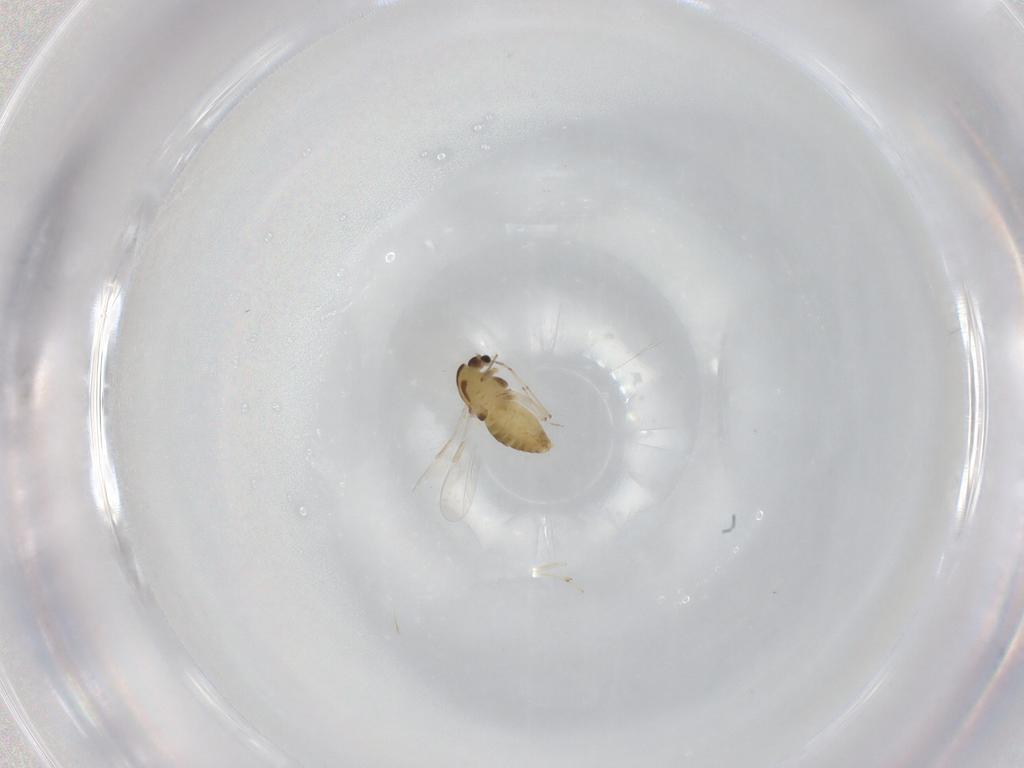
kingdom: Animalia
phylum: Arthropoda
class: Insecta
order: Diptera
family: Chironomidae
